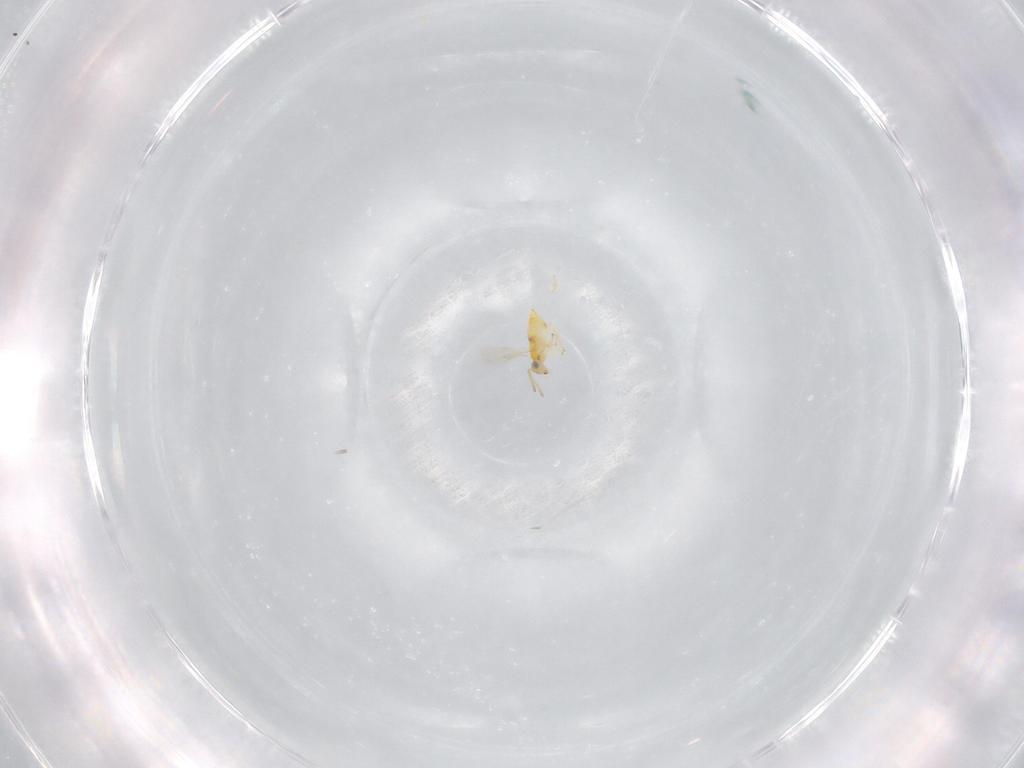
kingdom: Animalia
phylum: Arthropoda
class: Insecta
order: Hymenoptera
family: Aphelinidae
